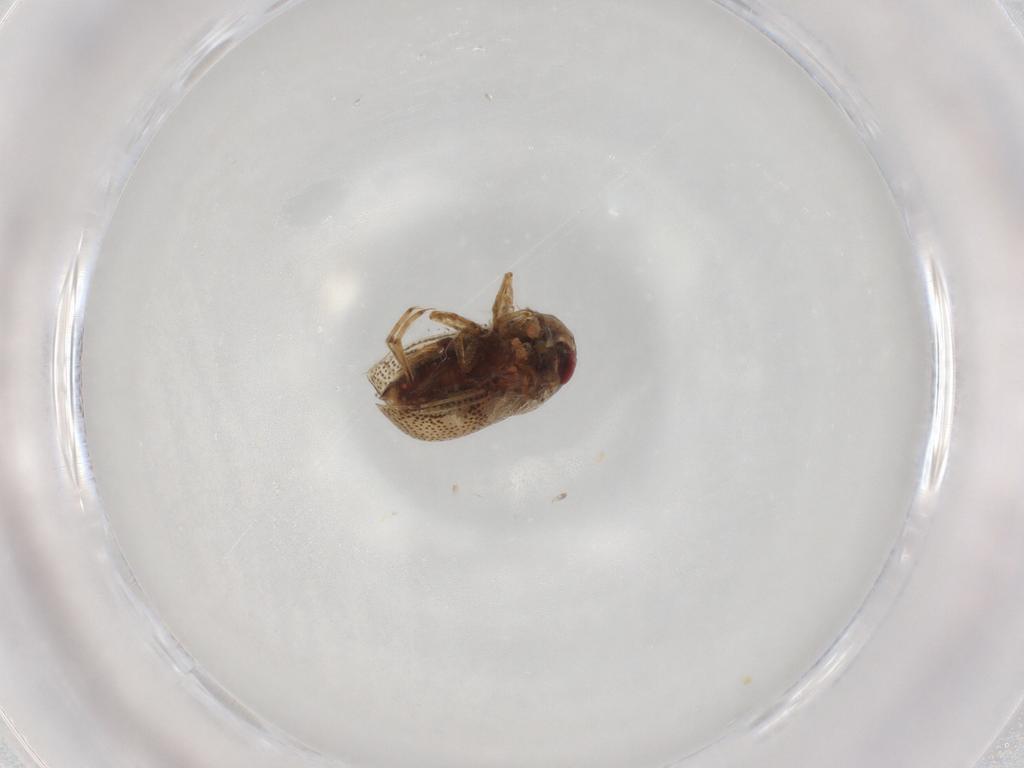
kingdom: Animalia
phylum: Arthropoda
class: Insecta
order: Hemiptera
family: Pleidae
